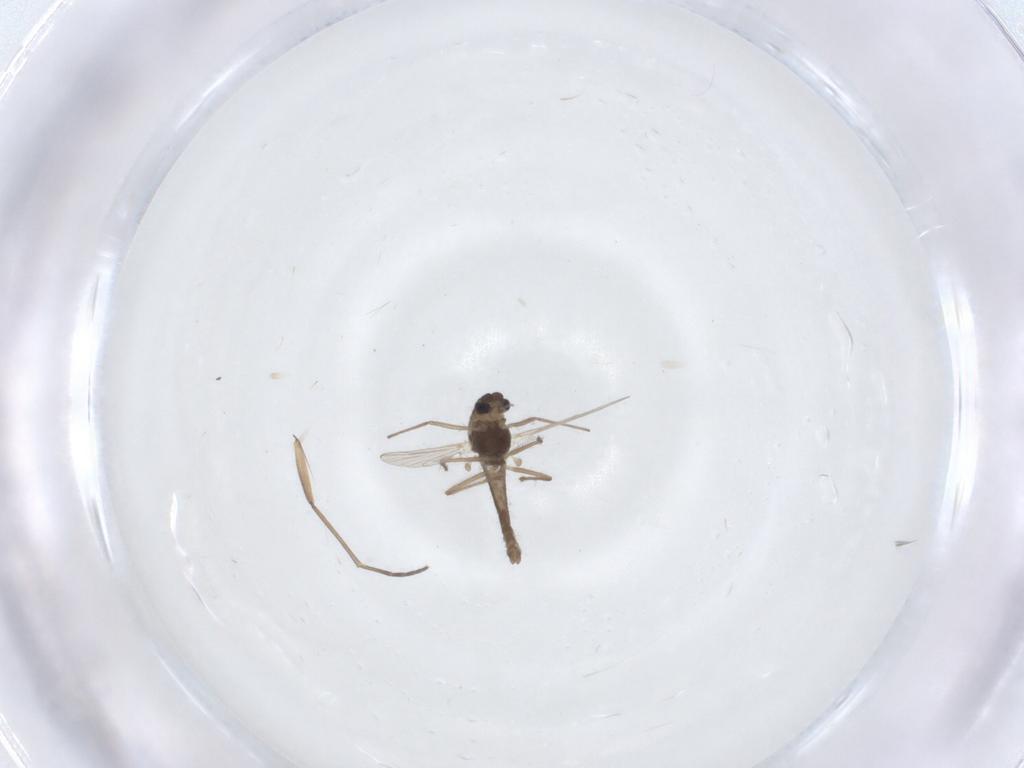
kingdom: Animalia
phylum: Arthropoda
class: Insecta
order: Diptera
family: Chironomidae
